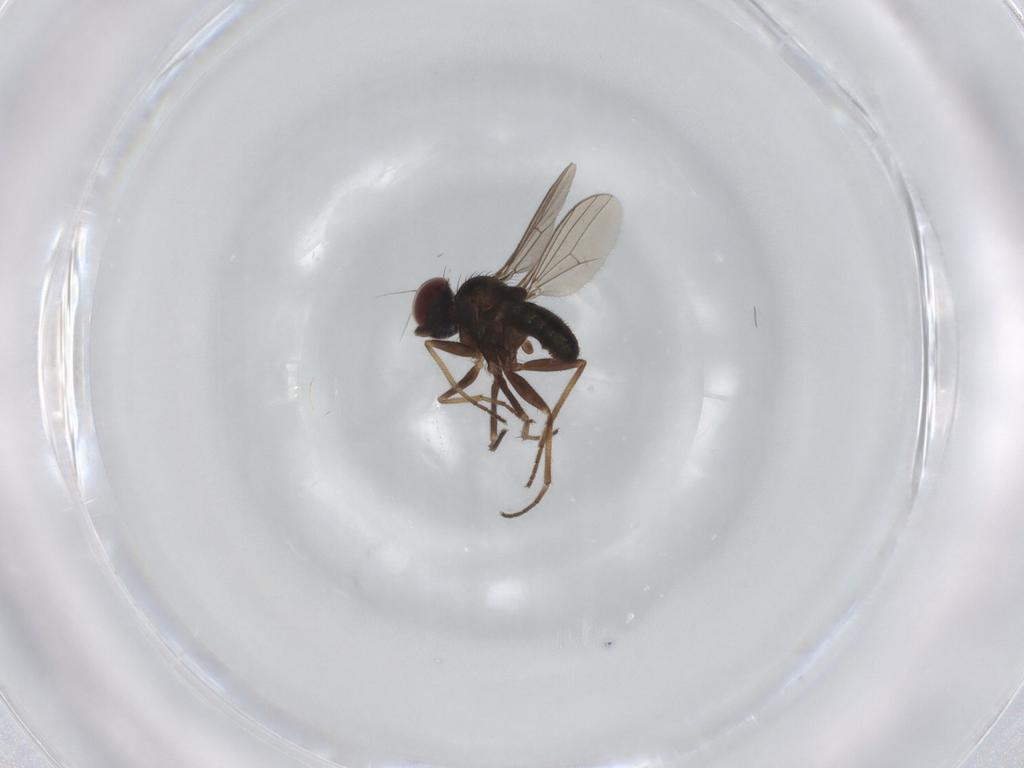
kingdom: Animalia
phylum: Arthropoda
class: Insecta
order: Diptera
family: Dolichopodidae
